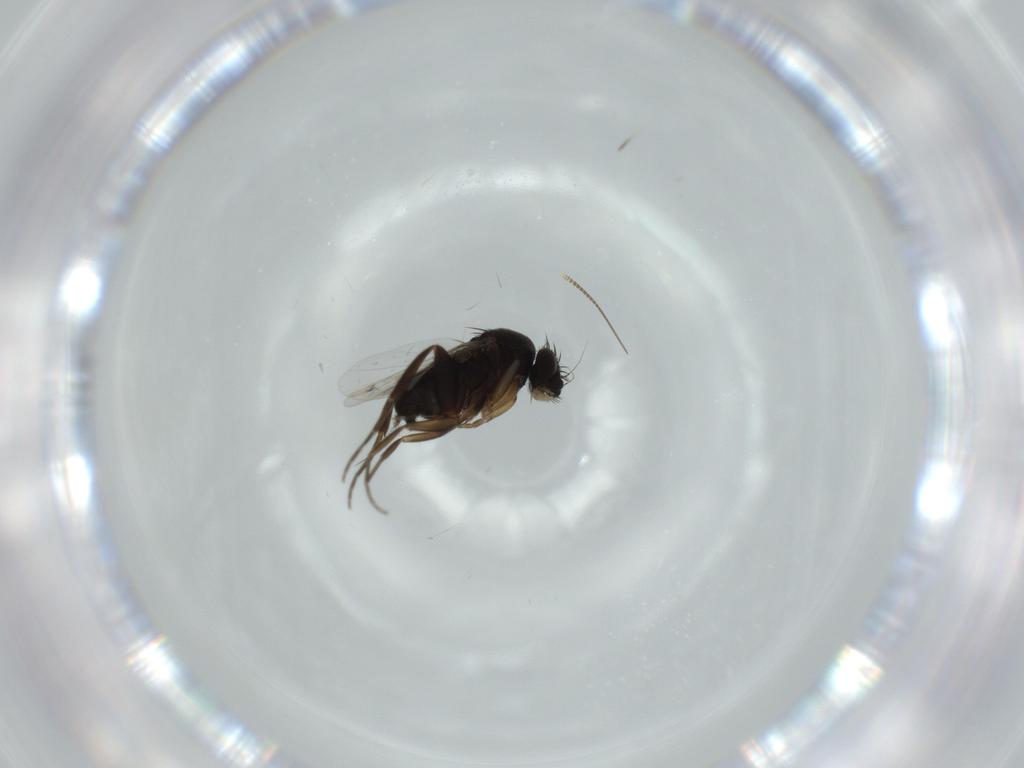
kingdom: Animalia
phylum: Arthropoda
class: Insecta
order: Diptera
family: Phoridae
